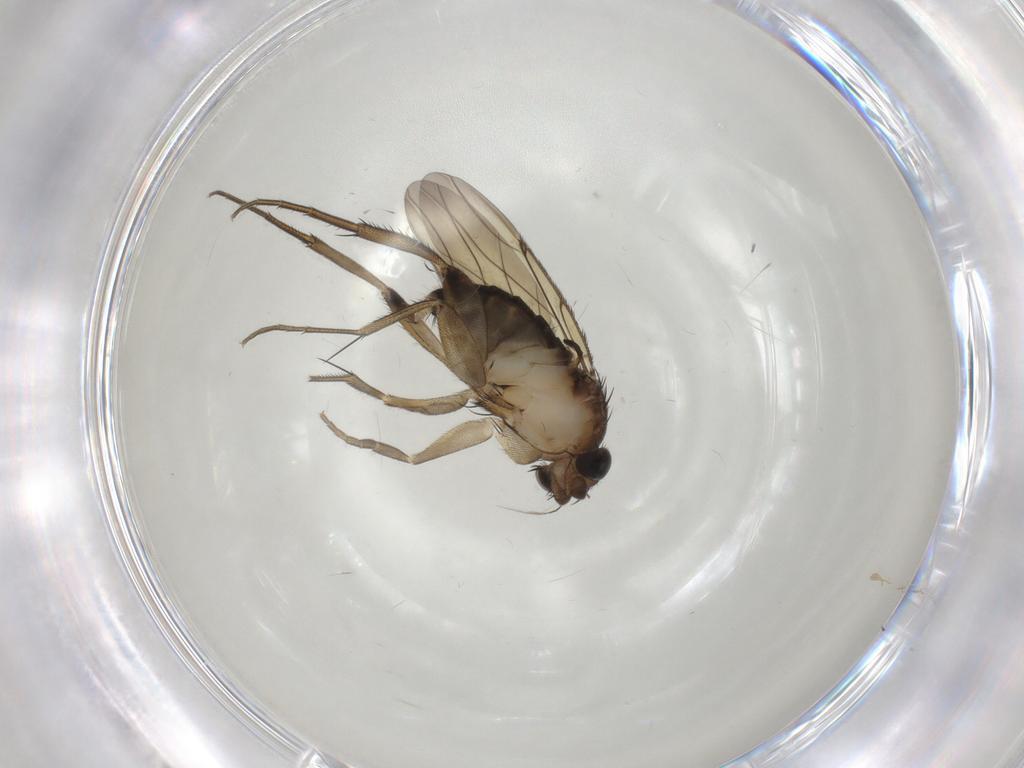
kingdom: Animalia
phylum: Arthropoda
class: Insecta
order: Diptera
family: Phoridae
